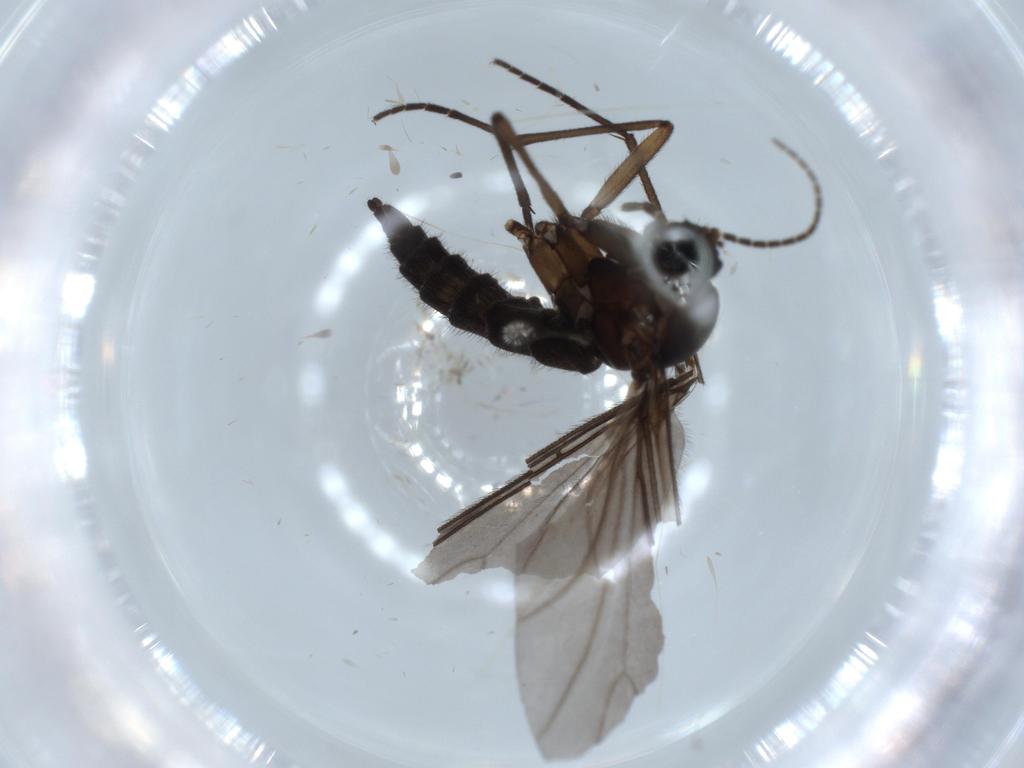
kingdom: Animalia
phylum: Arthropoda
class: Insecta
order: Diptera
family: Sciaridae
